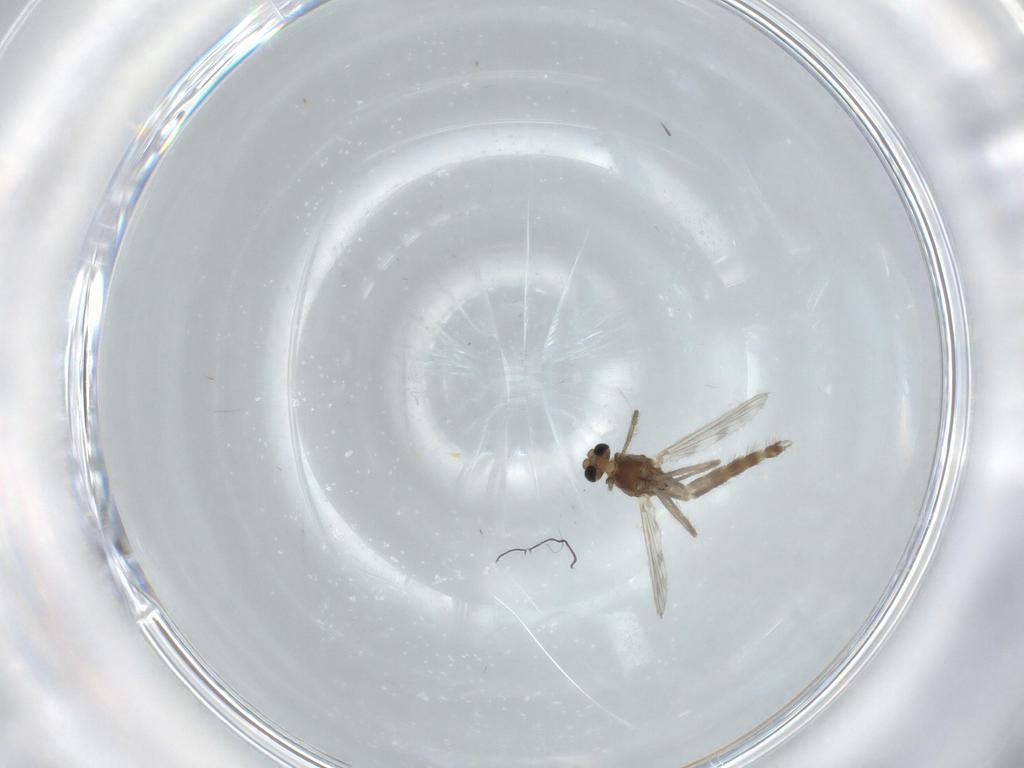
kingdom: Animalia
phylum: Arthropoda
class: Insecta
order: Diptera
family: Chironomidae
